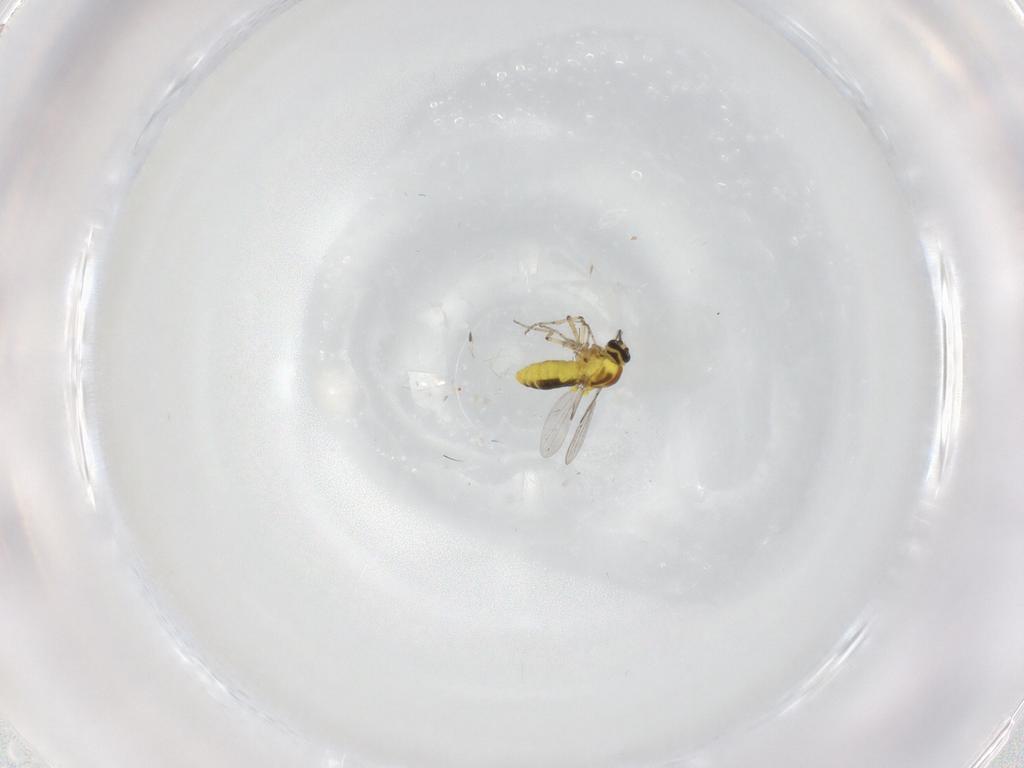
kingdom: Animalia
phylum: Arthropoda
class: Insecta
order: Diptera
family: Ceratopogonidae
